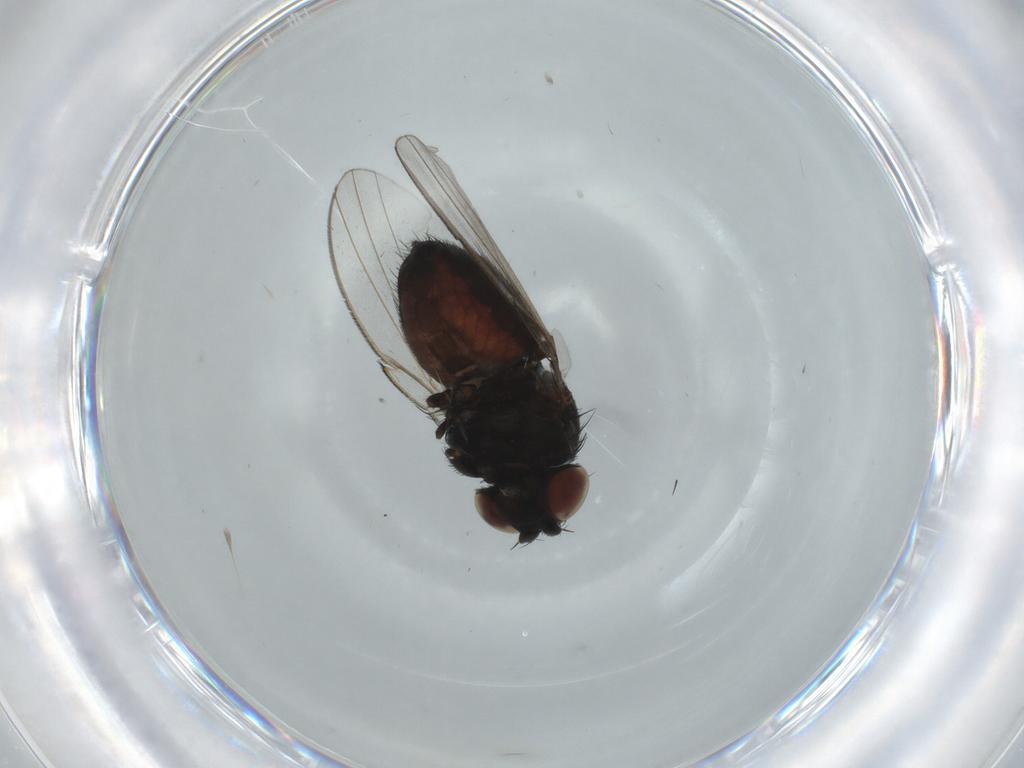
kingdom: Animalia
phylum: Arthropoda
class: Insecta
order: Diptera
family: Milichiidae
